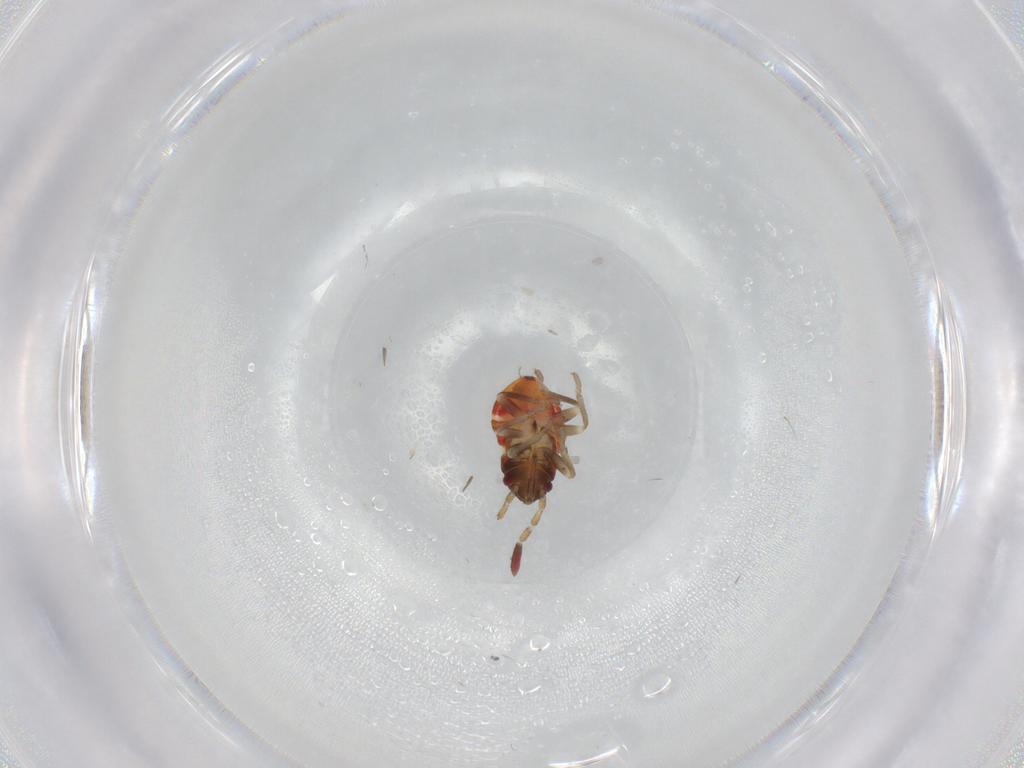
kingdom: Animalia
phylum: Arthropoda
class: Insecta
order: Hemiptera
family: Rhyparochromidae
